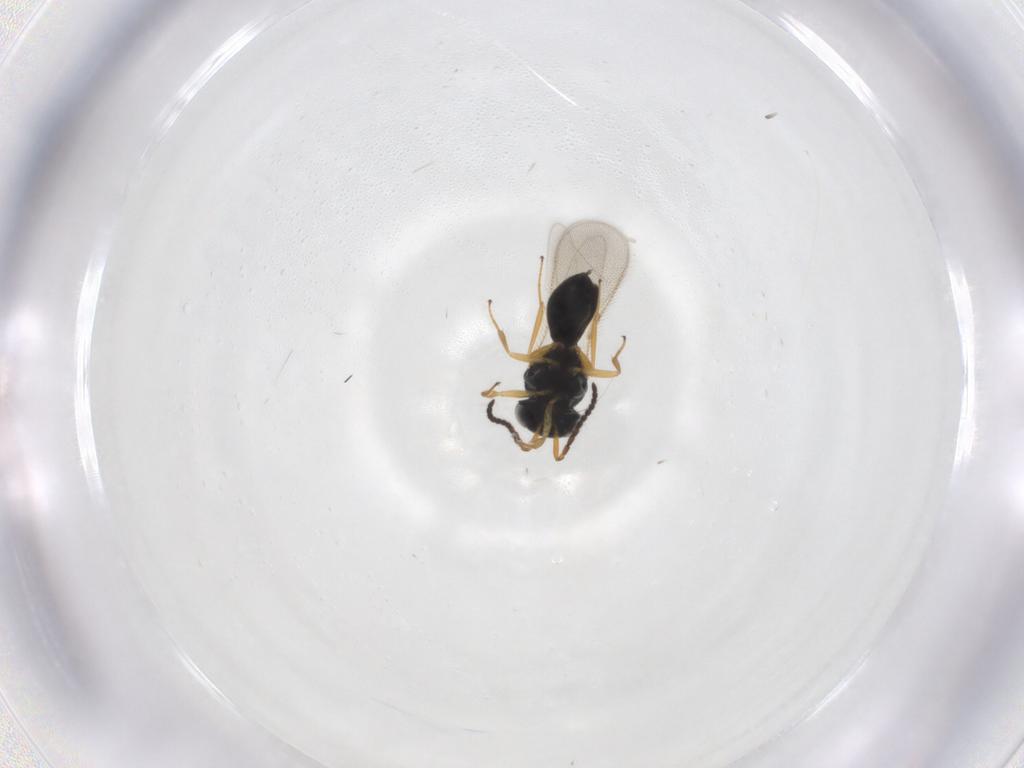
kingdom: Animalia
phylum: Arthropoda
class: Insecta
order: Hymenoptera
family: Scelionidae
